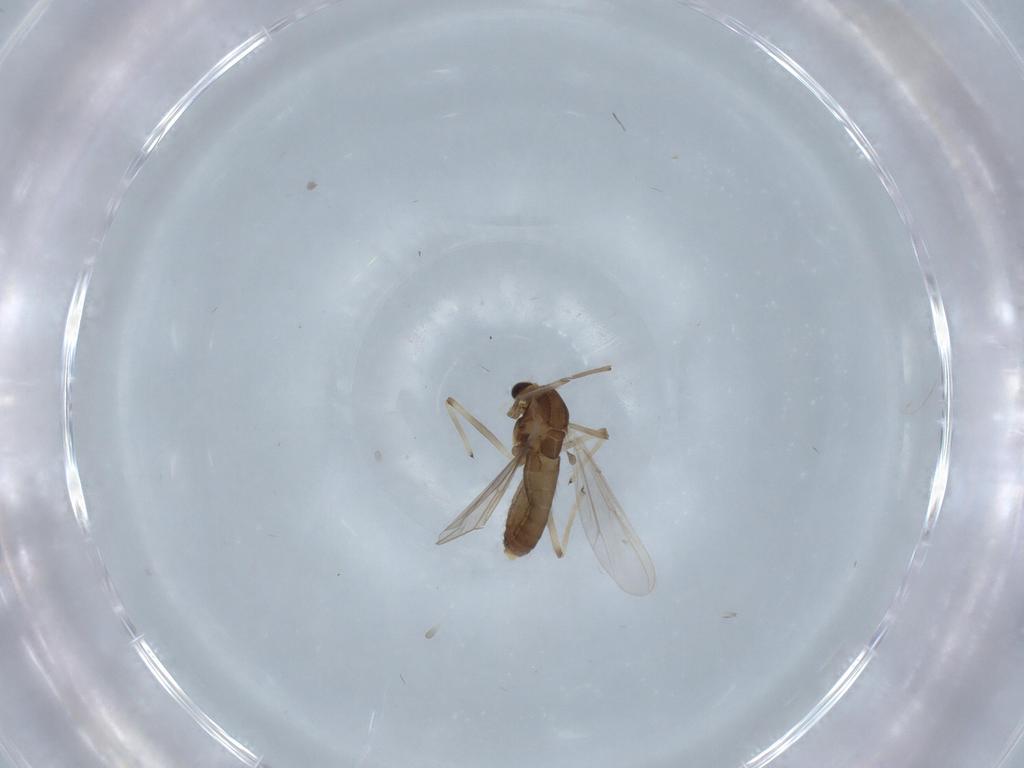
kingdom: Animalia
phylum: Arthropoda
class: Insecta
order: Diptera
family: Chironomidae
